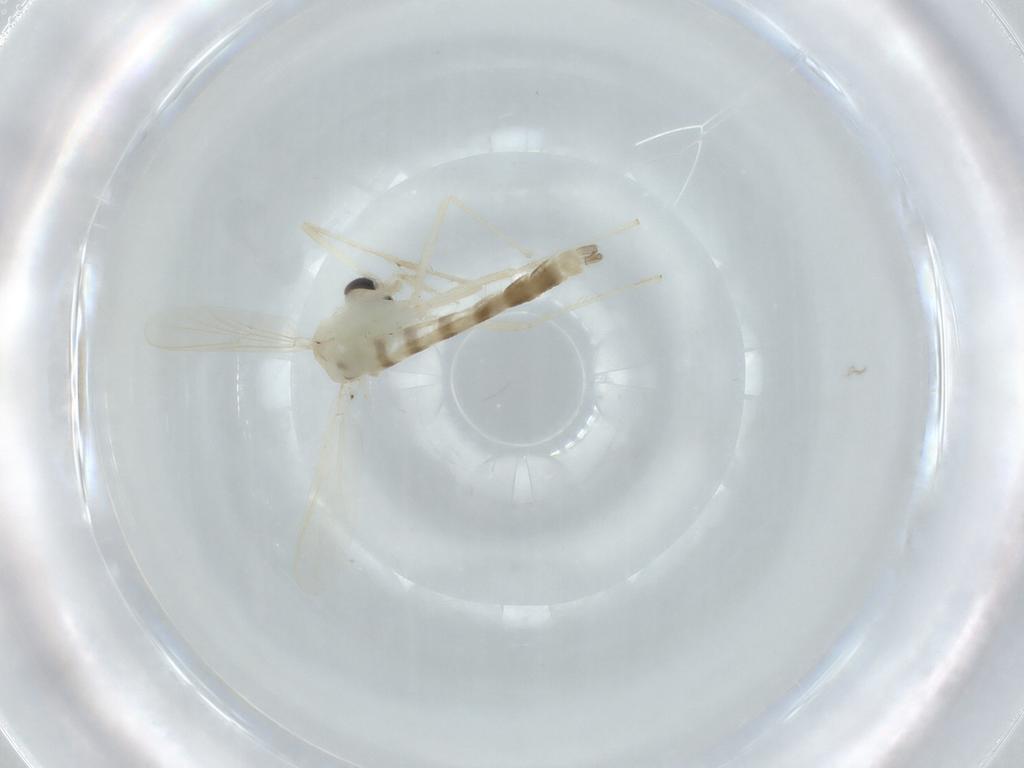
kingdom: Animalia
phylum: Arthropoda
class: Insecta
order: Diptera
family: Chironomidae
